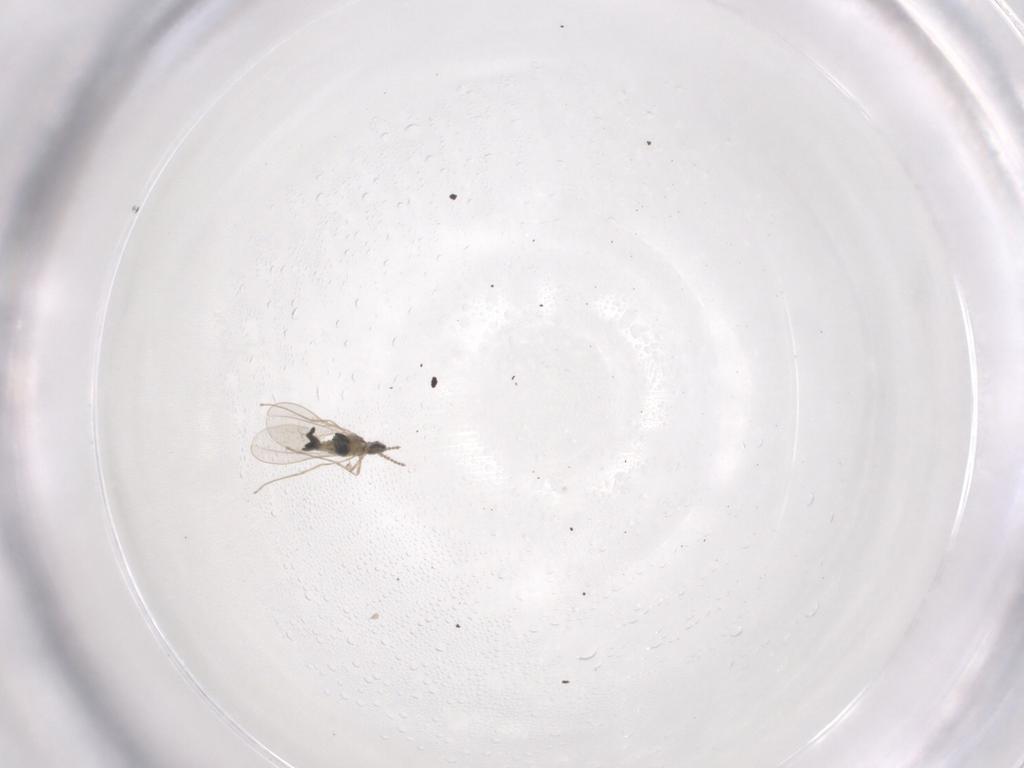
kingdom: Animalia
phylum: Arthropoda
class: Insecta
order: Diptera
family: Cecidomyiidae
